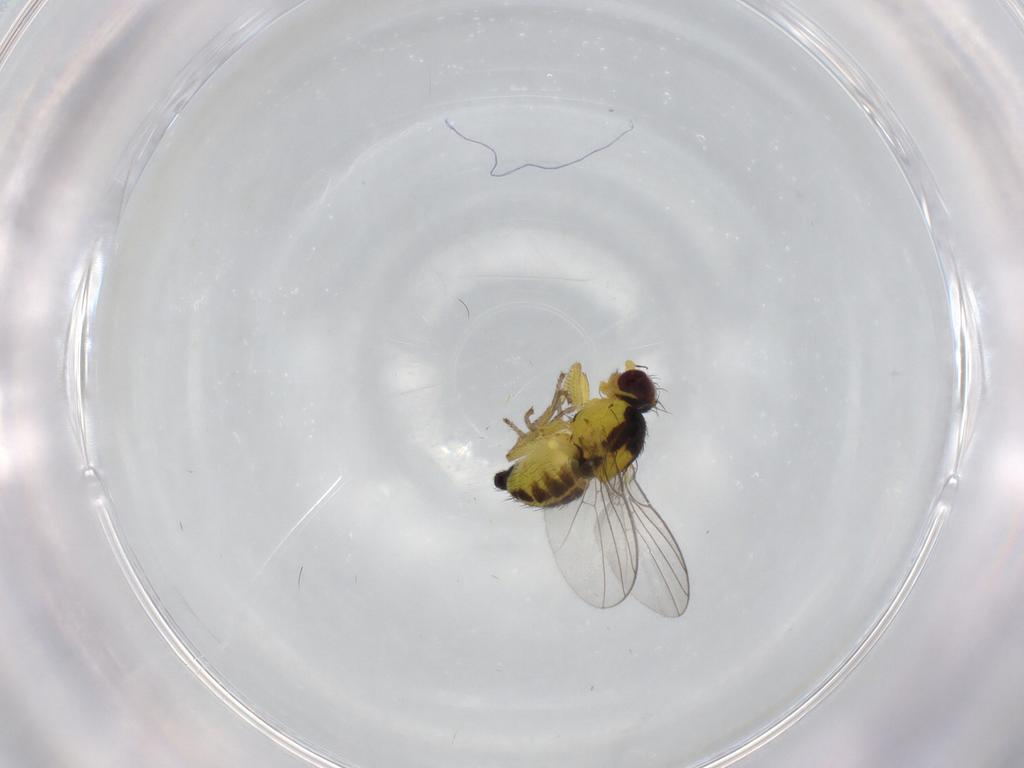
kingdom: Animalia
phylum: Arthropoda
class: Insecta
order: Diptera
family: Agromyzidae
